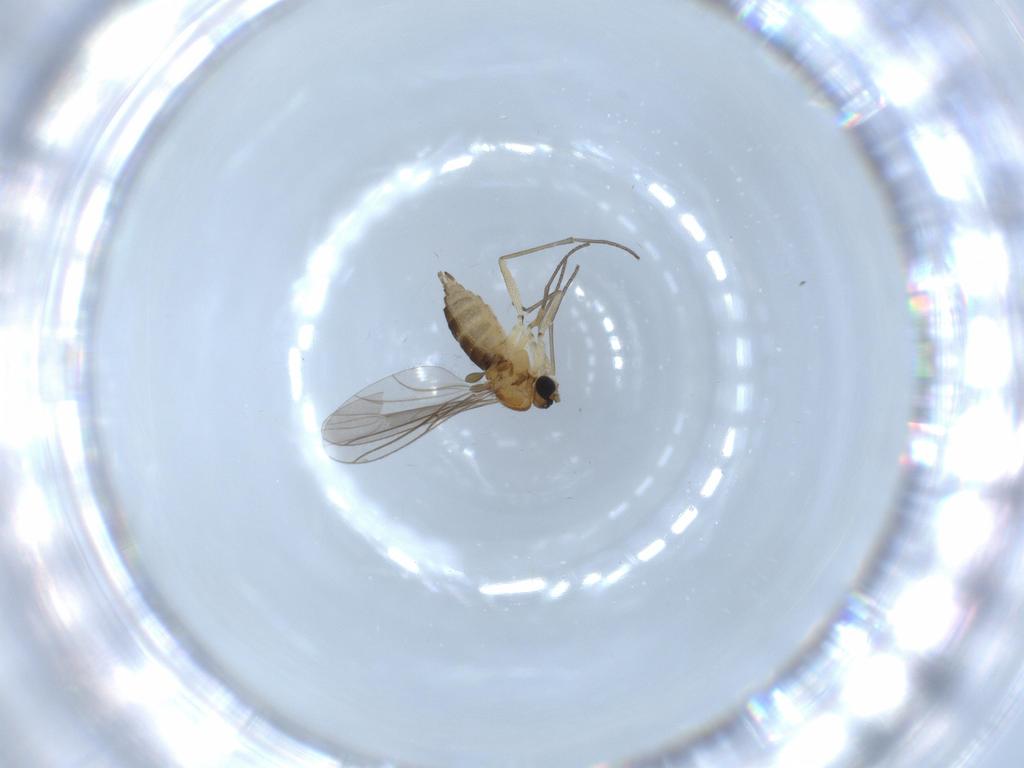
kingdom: Animalia
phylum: Arthropoda
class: Insecta
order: Diptera
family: Sciaridae
